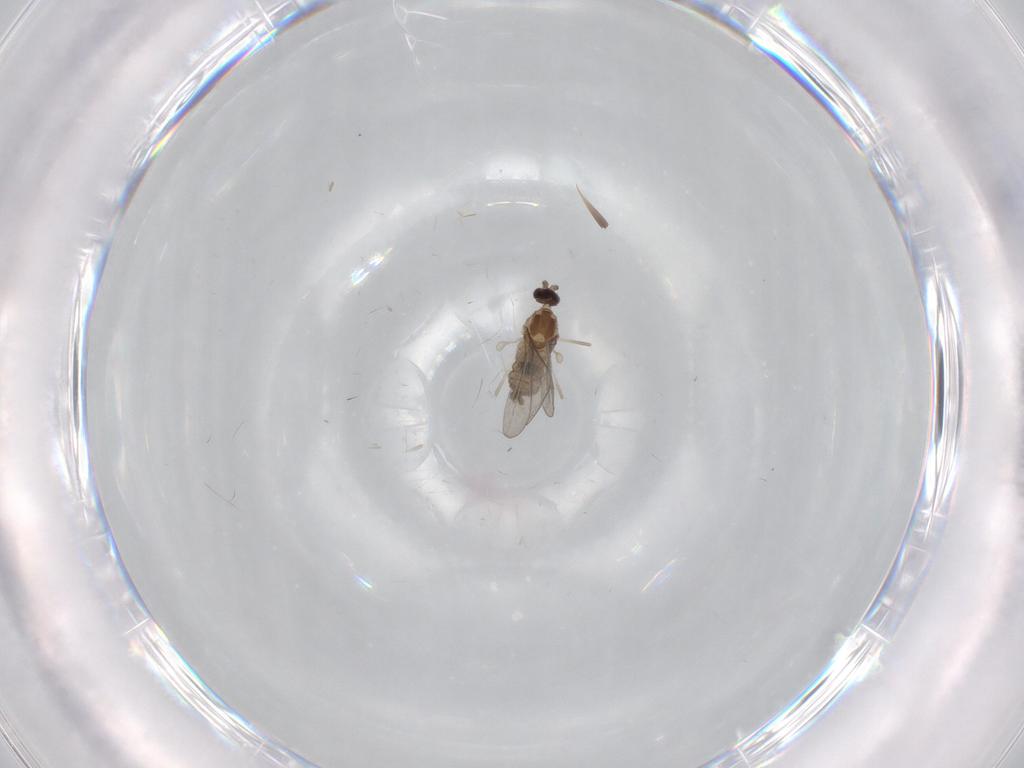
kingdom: Animalia
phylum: Arthropoda
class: Insecta
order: Diptera
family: Cecidomyiidae
